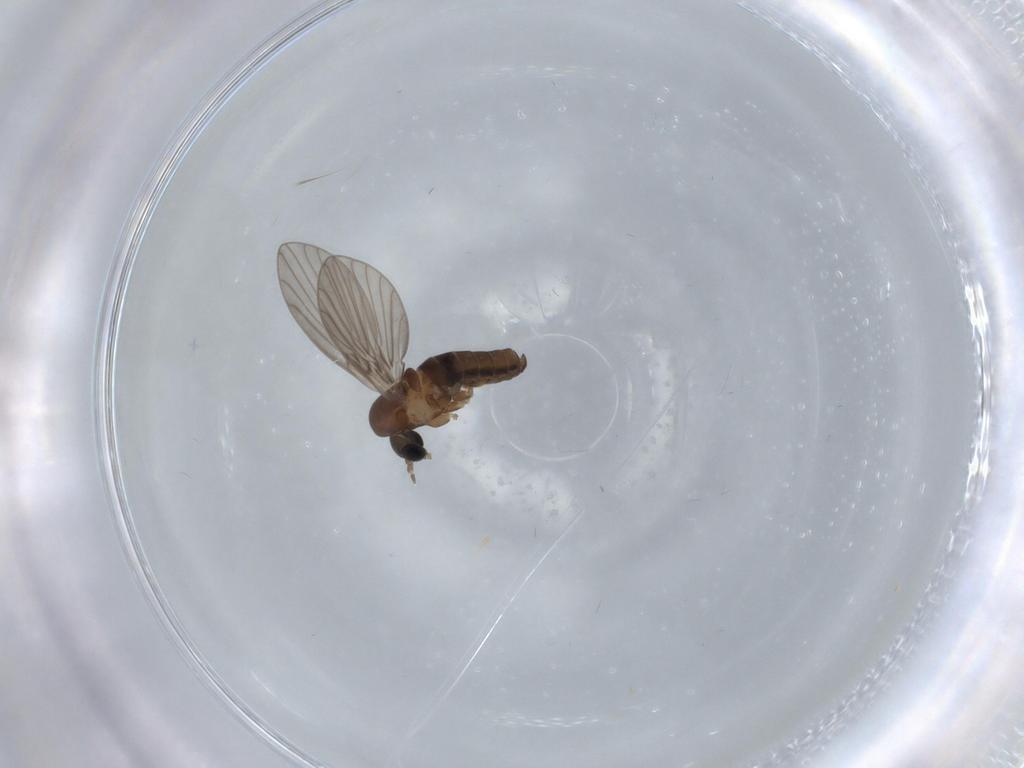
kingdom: Animalia
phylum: Arthropoda
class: Insecta
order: Diptera
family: Psychodidae
